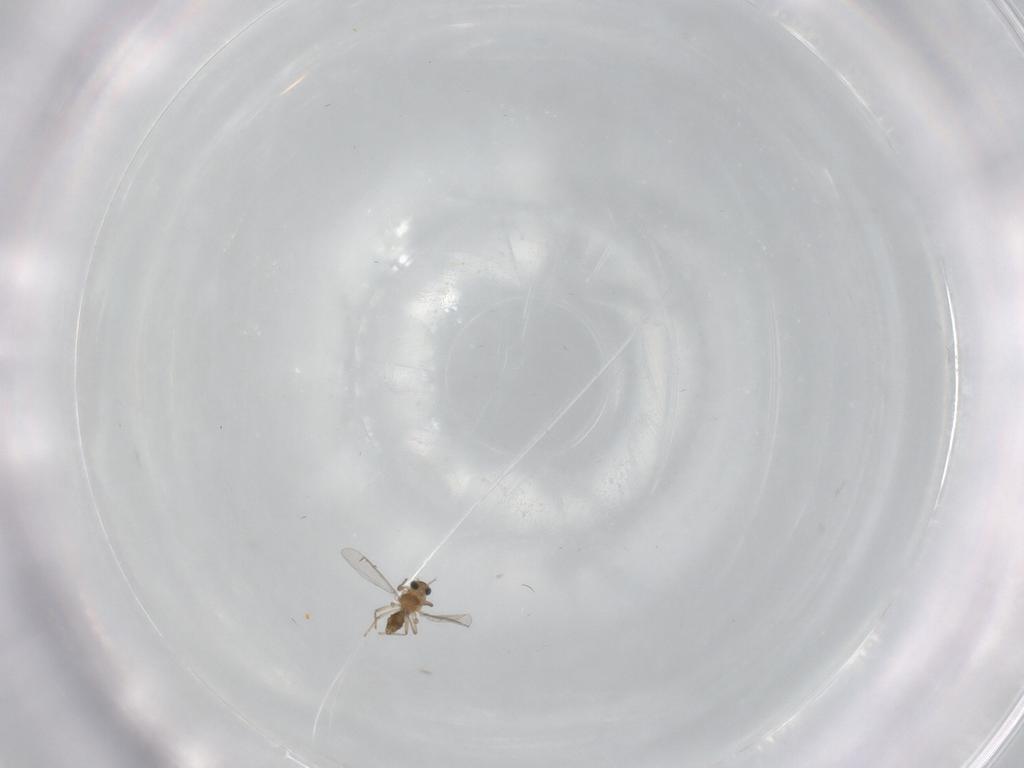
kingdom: Animalia
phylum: Arthropoda
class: Insecta
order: Diptera
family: Chironomidae
